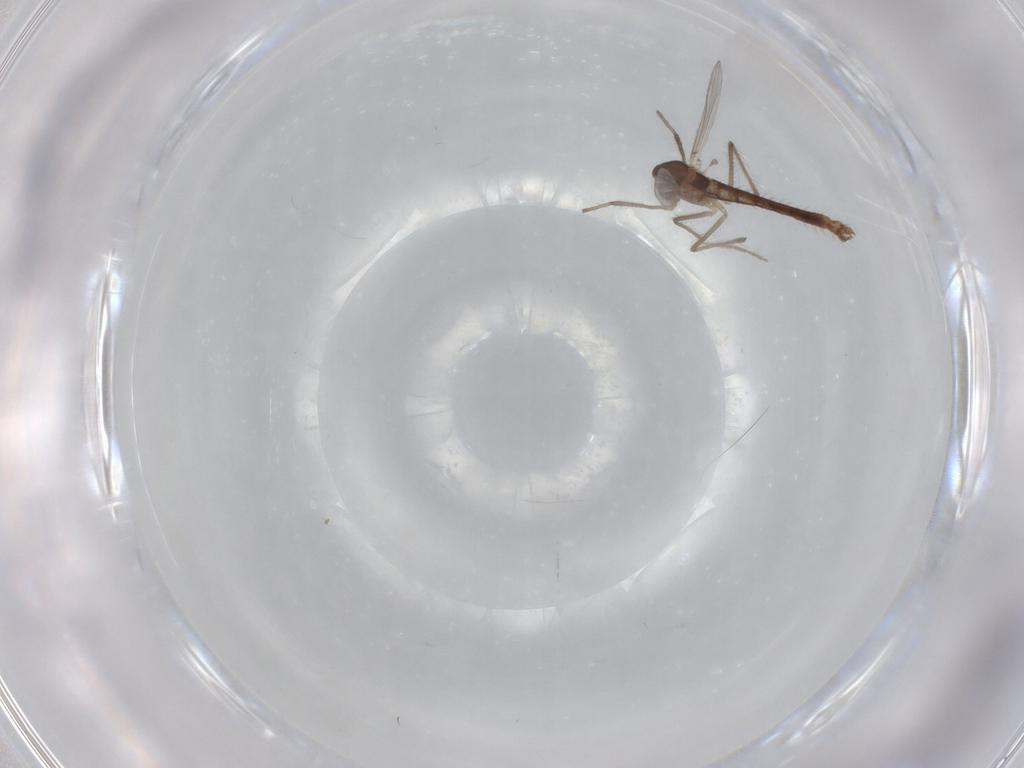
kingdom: Animalia
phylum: Arthropoda
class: Insecta
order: Diptera
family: Chironomidae
